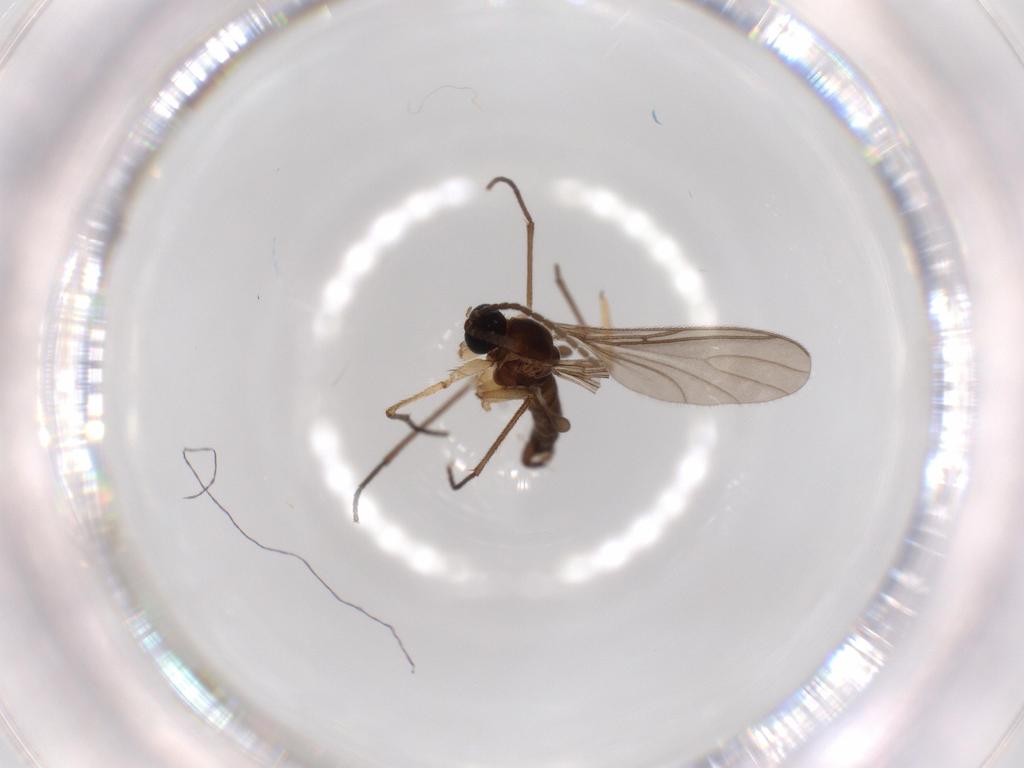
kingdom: Animalia
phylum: Arthropoda
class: Insecta
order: Diptera
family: Sciaridae
